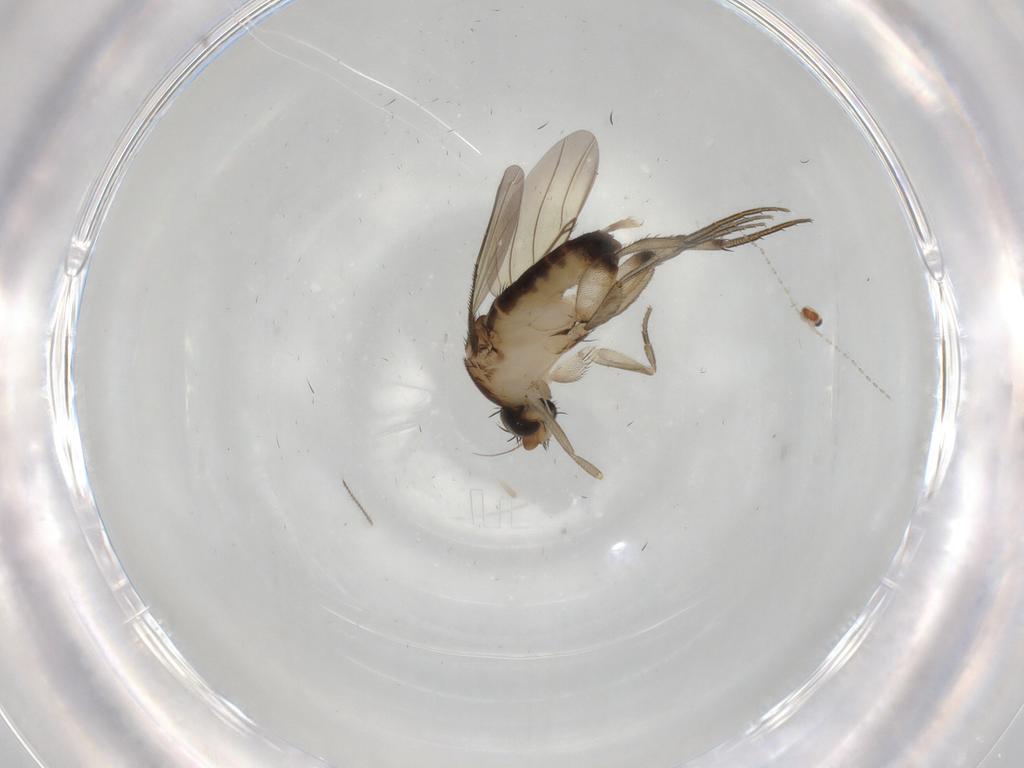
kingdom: Animalia
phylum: Arthropoda
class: Insecta
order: Diptera
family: Phoridae
